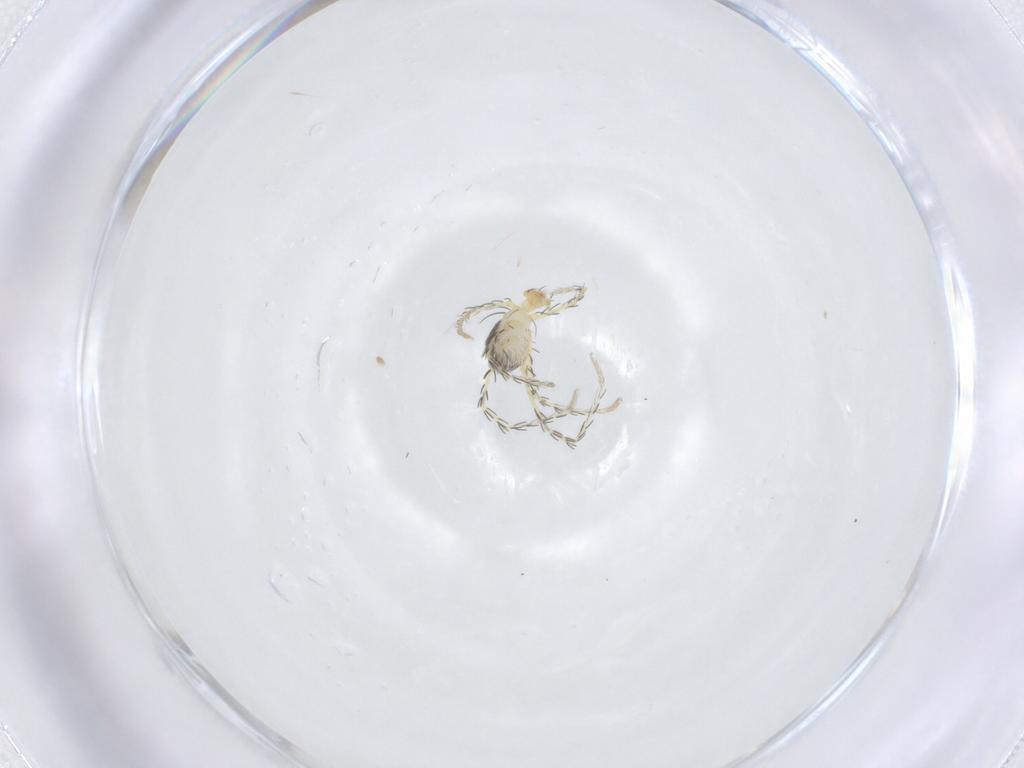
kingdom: Animalia
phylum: Arthropoda
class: Arachnida
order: Trombidiformes
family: Erythraeidae
